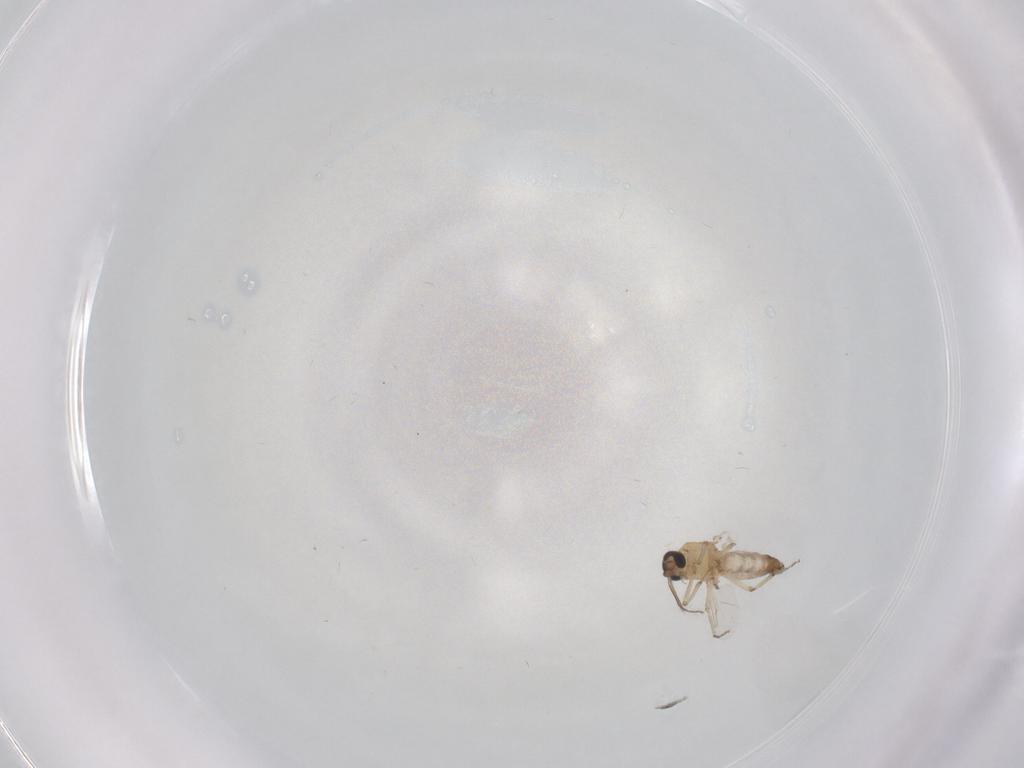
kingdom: Animalia
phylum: Arthropoda
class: Insecta
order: Diptera
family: Ceratopogonidae
